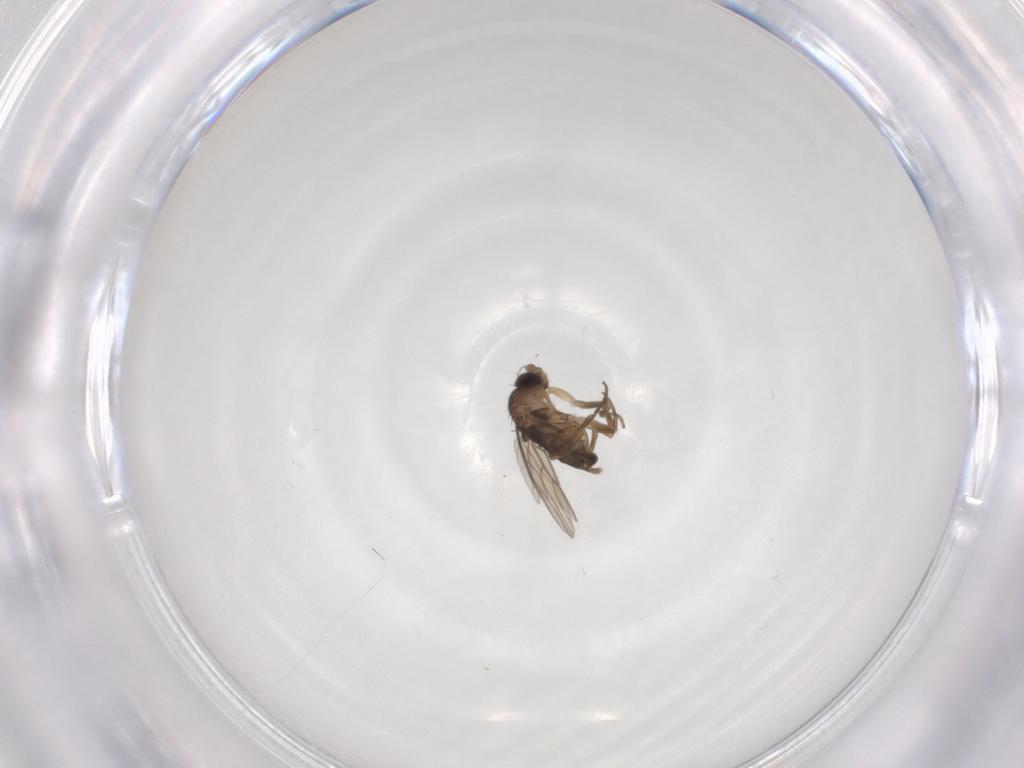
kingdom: Animalia
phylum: Arthropoda
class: Insecta
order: Diptera
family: Phoridae
